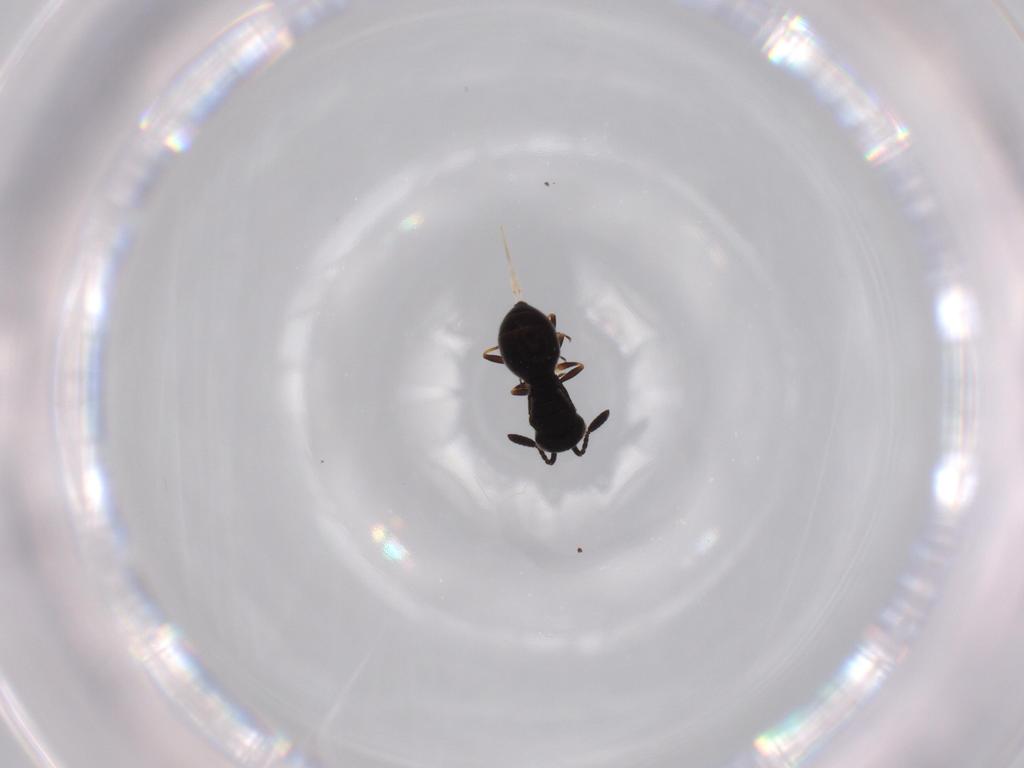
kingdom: Animalia
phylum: Arthropoda
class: Insecta
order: Hymenoptera
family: Scelionidae
